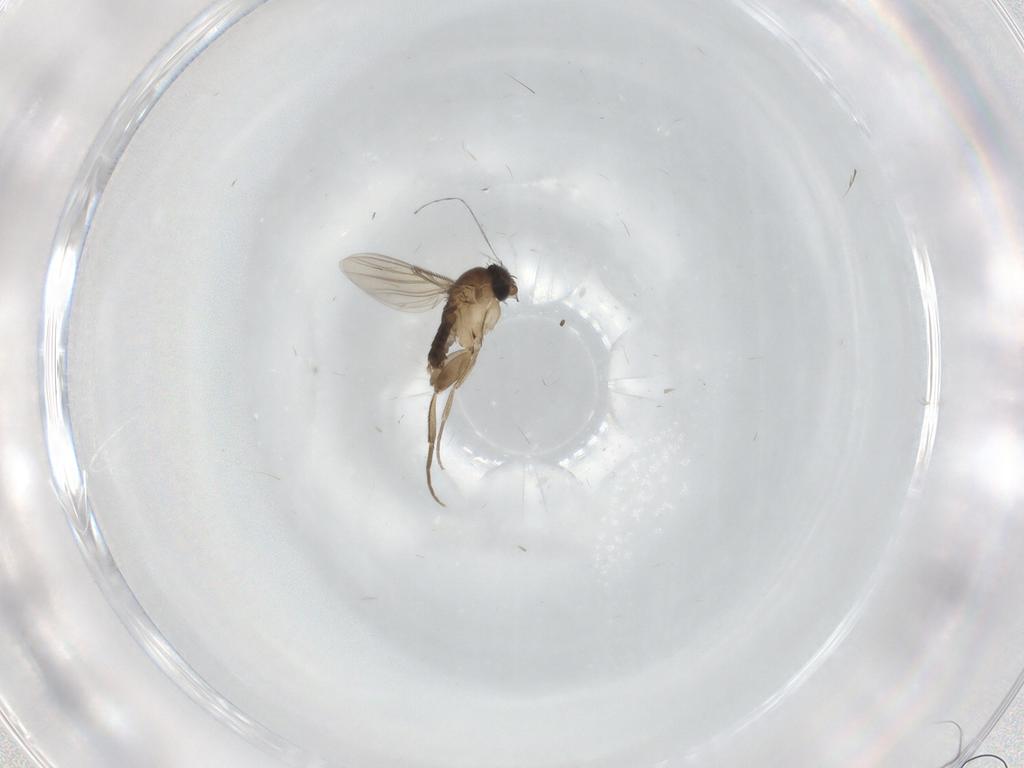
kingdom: Animalia
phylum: Arthropoda
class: Insecta
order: Diptera
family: Phoridae
